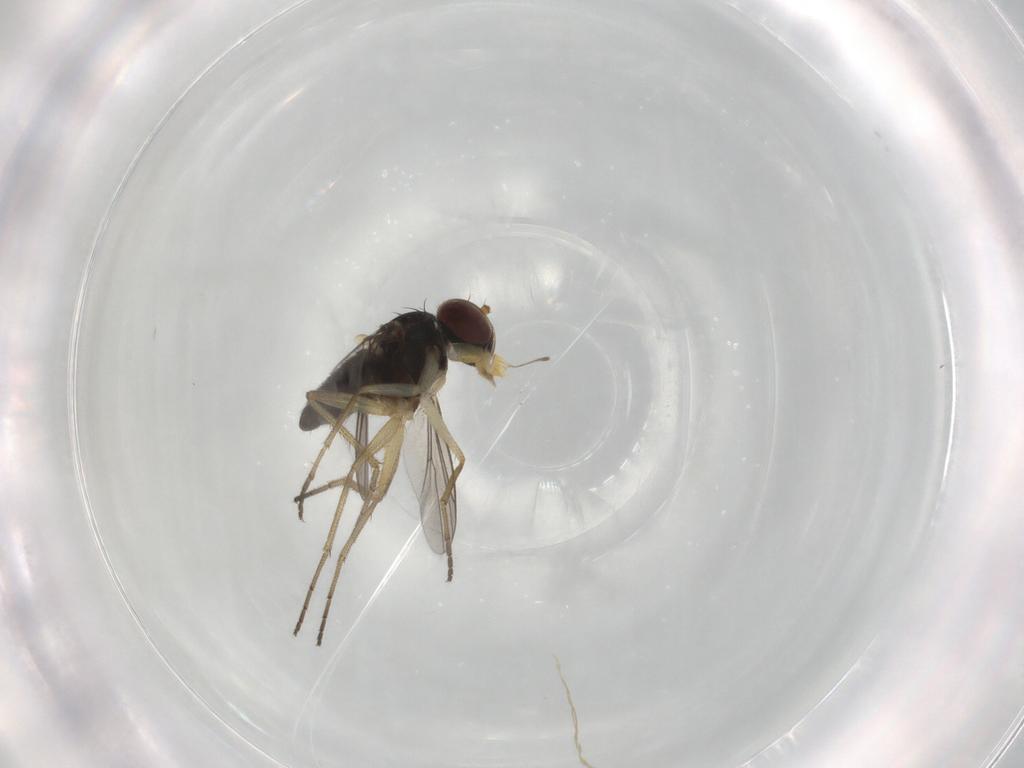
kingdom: Animalia
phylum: Arthropoda
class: Insecta
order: Diptera
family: Dolichopodidae
